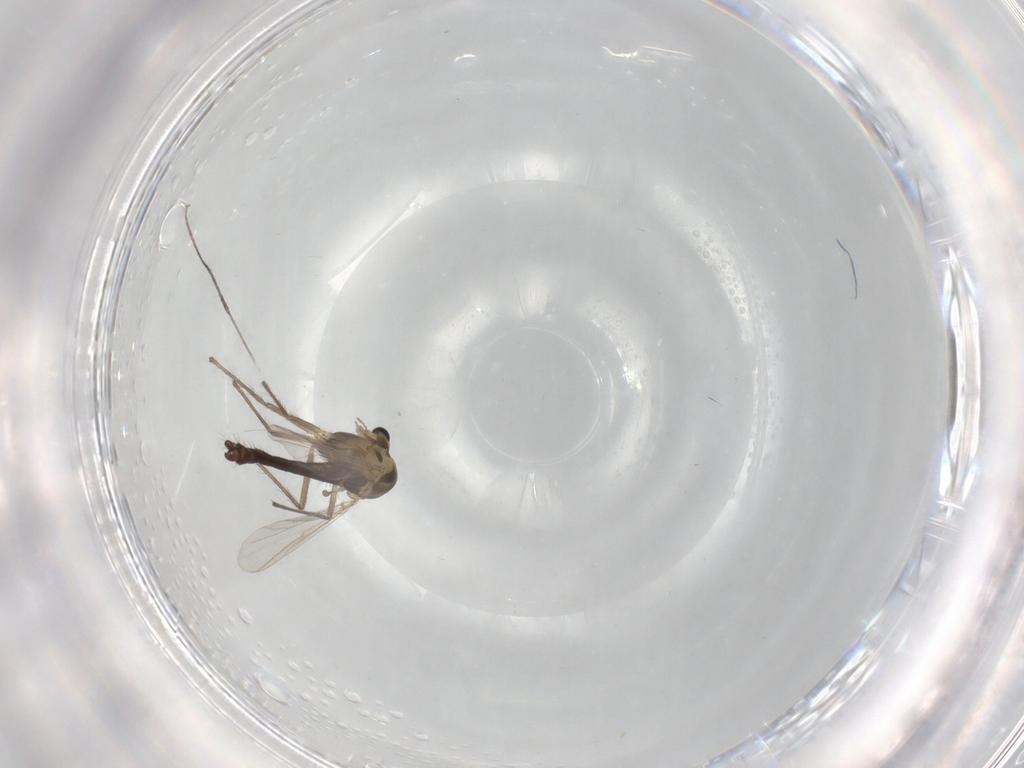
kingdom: Animalia
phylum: Arthropoda
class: Insecta
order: Diptera
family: Chironomidae
